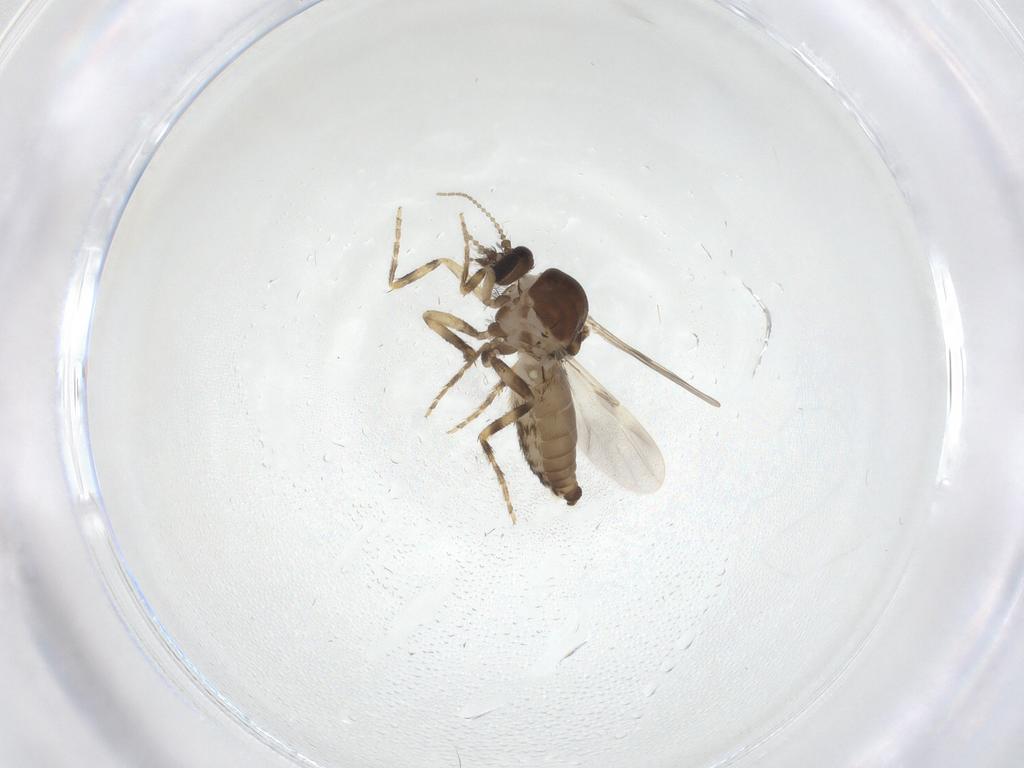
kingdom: Animalia
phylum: Arthropoda
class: Insecta
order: Diptera
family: Ceratopogonidae
